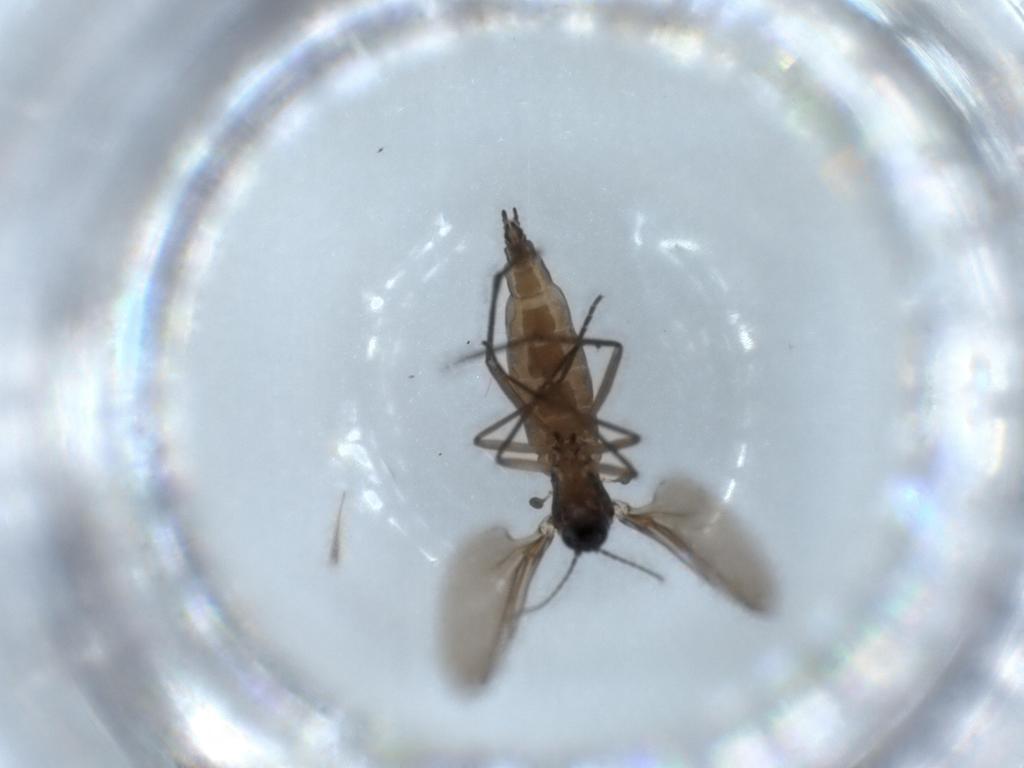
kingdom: Animalia
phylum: Arthropoda
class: Insecta
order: Diptera
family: Sciaridae
